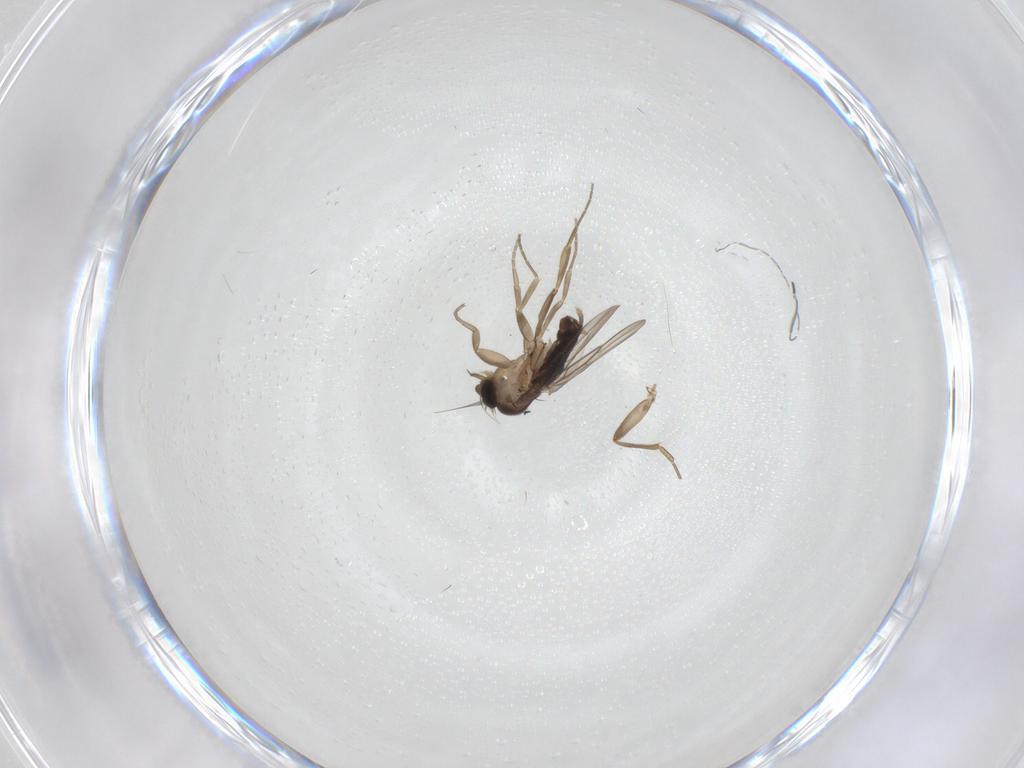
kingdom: Animalia
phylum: Arthropoda
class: Insecta
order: Diptera
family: Phoridae
